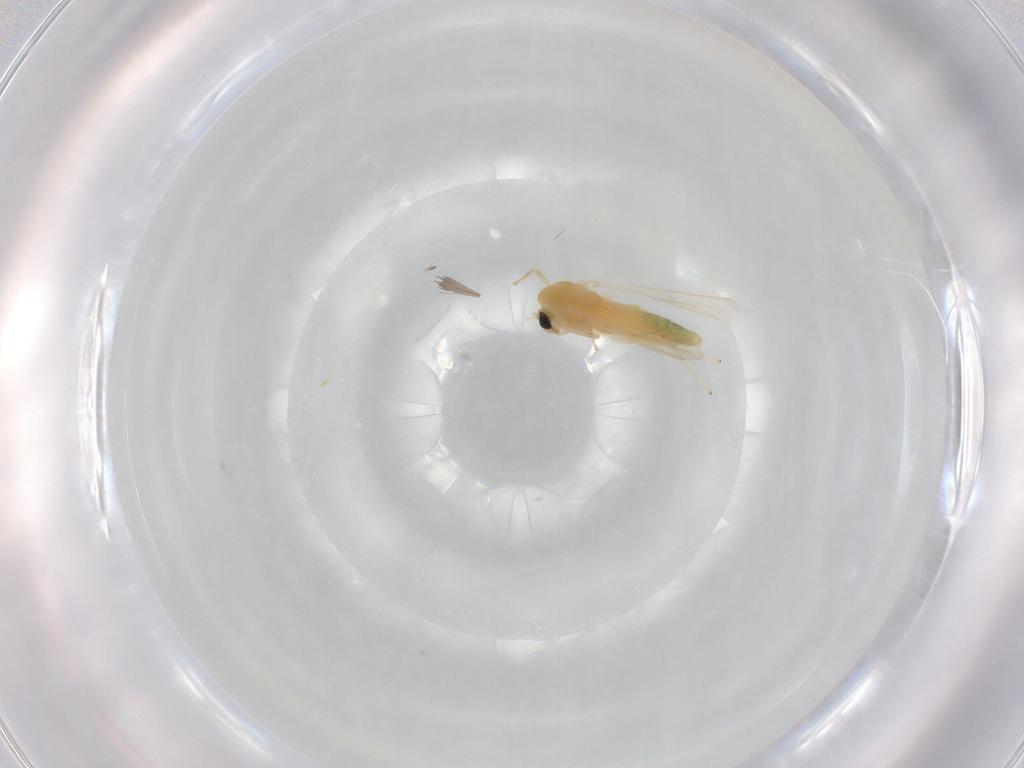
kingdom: Animalia
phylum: Arthropoda
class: Insecta
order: Diptera
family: Chironomidae
